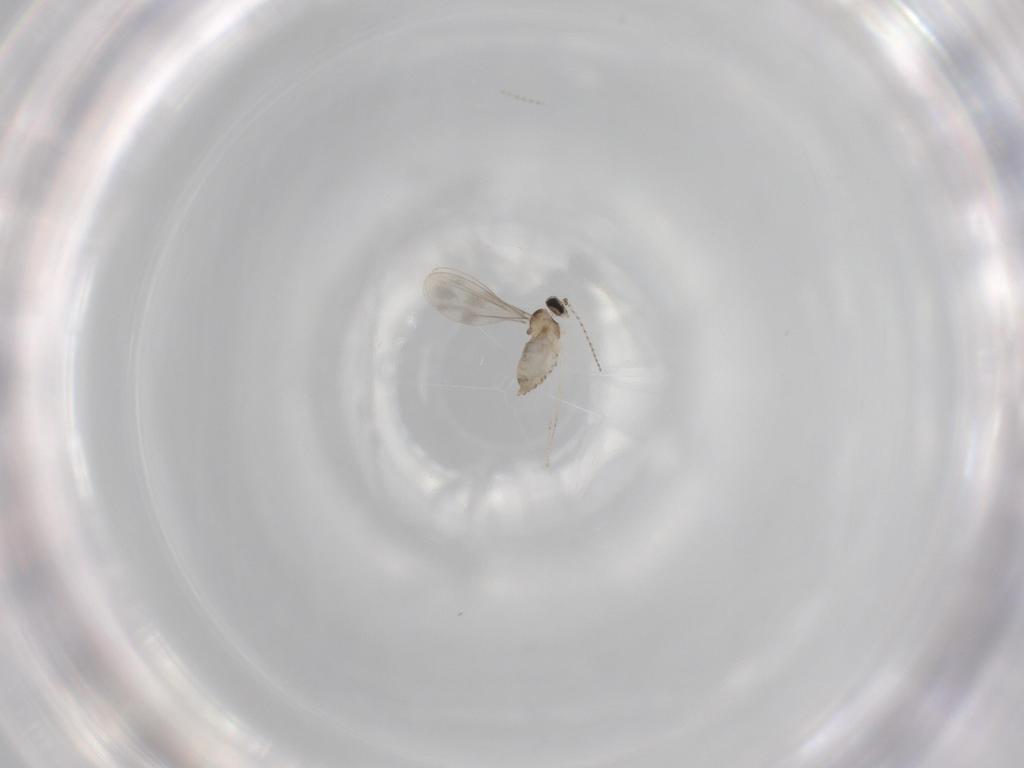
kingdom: Animalia
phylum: Arthropoda
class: Insecta
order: Diptera
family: Cecidomyiidae
